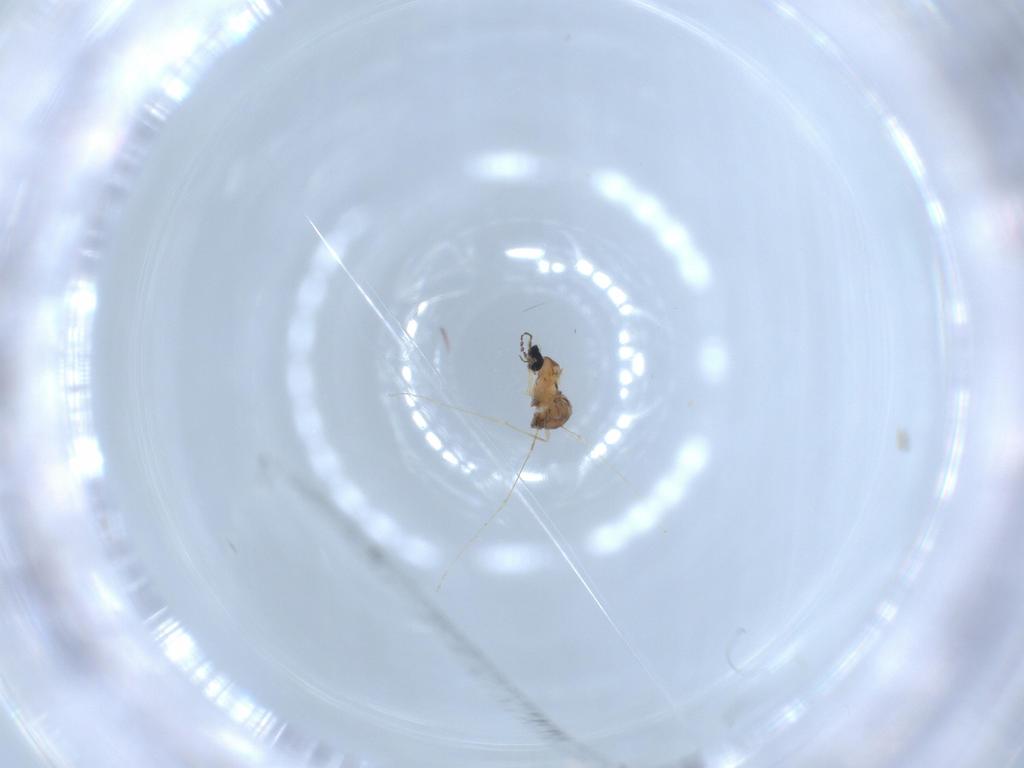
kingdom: Animalia
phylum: Arthropoda
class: Insecta
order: Diptera
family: Cecidomyiidae
